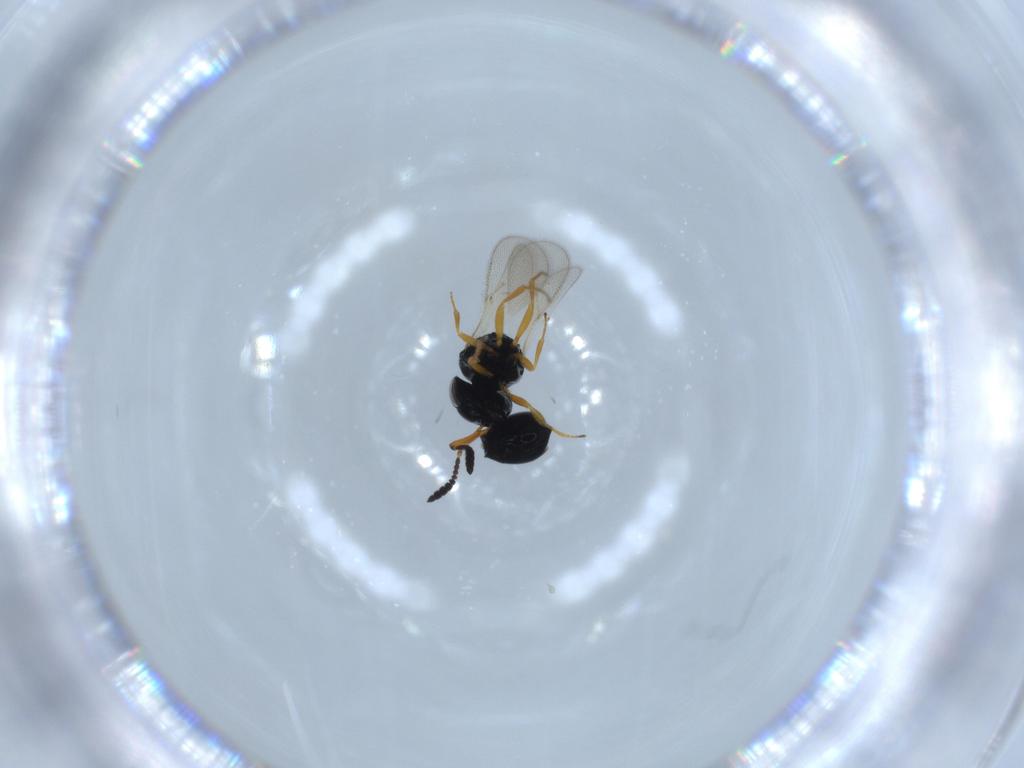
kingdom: Animalia
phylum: Arthropoda
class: Insecta
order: Hymenoptera
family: Scelionidae
